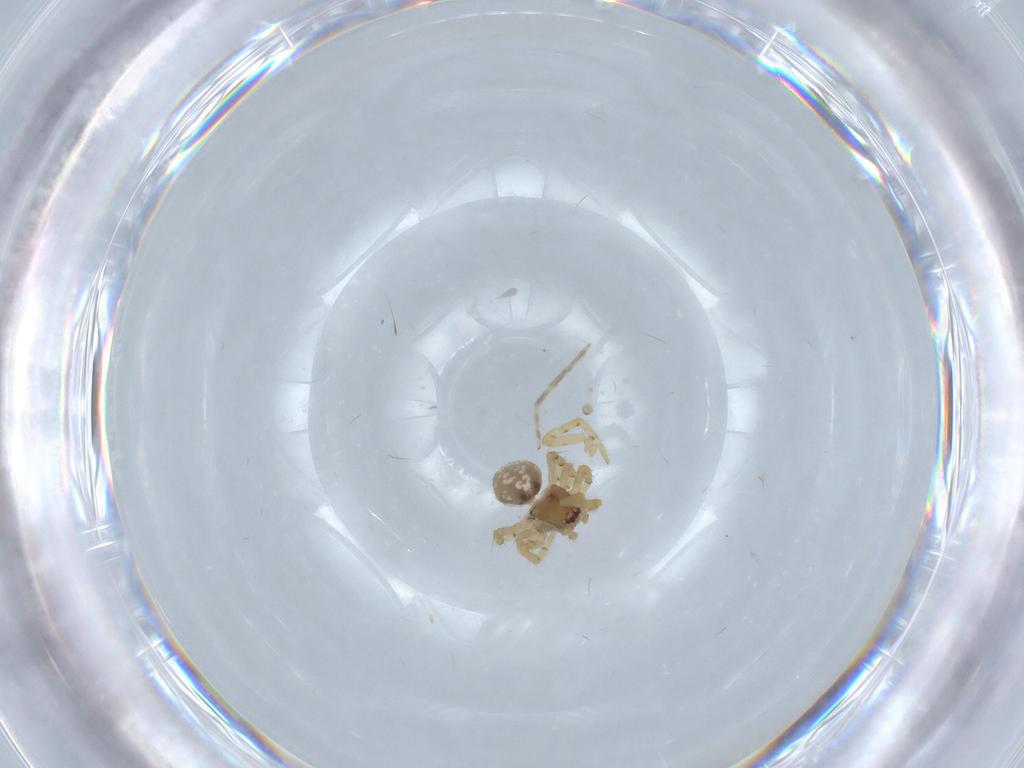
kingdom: Animalia
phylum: Arthropoda
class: Arachnida
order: Araneae
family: Theridiidae
